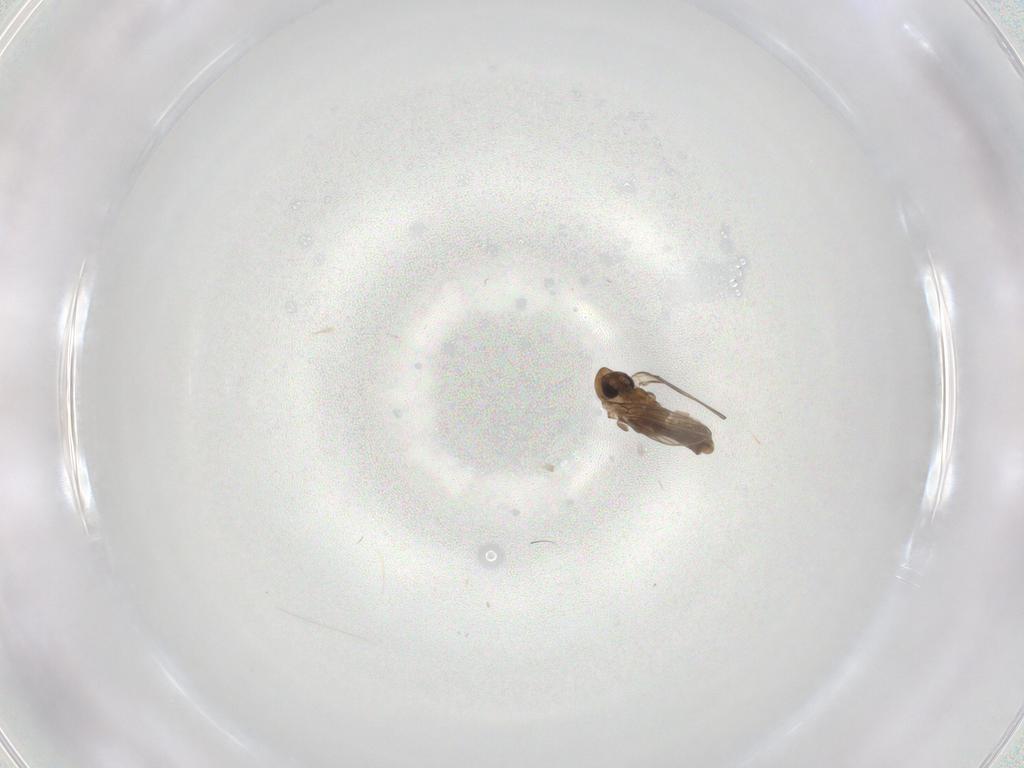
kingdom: Animalia
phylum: Arthropoda
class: Insecta
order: Diptera
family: Psychodidae
